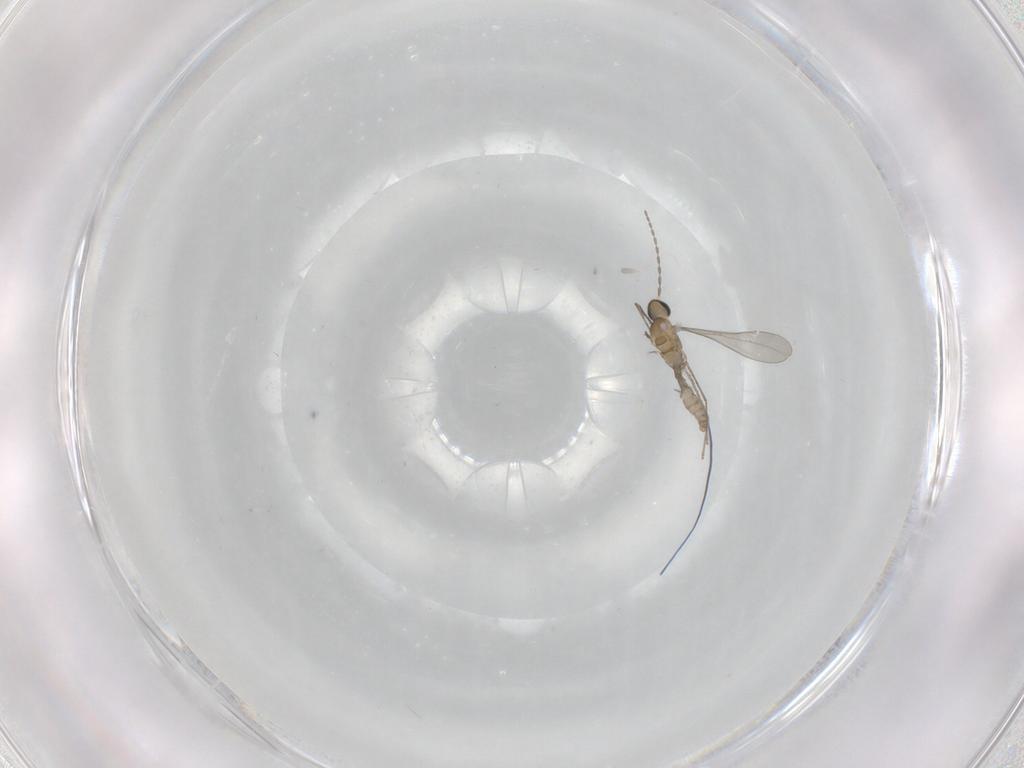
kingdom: Animalia
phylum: Arthropoda
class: Insecta
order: Diptera
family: Cecidomyiidae
